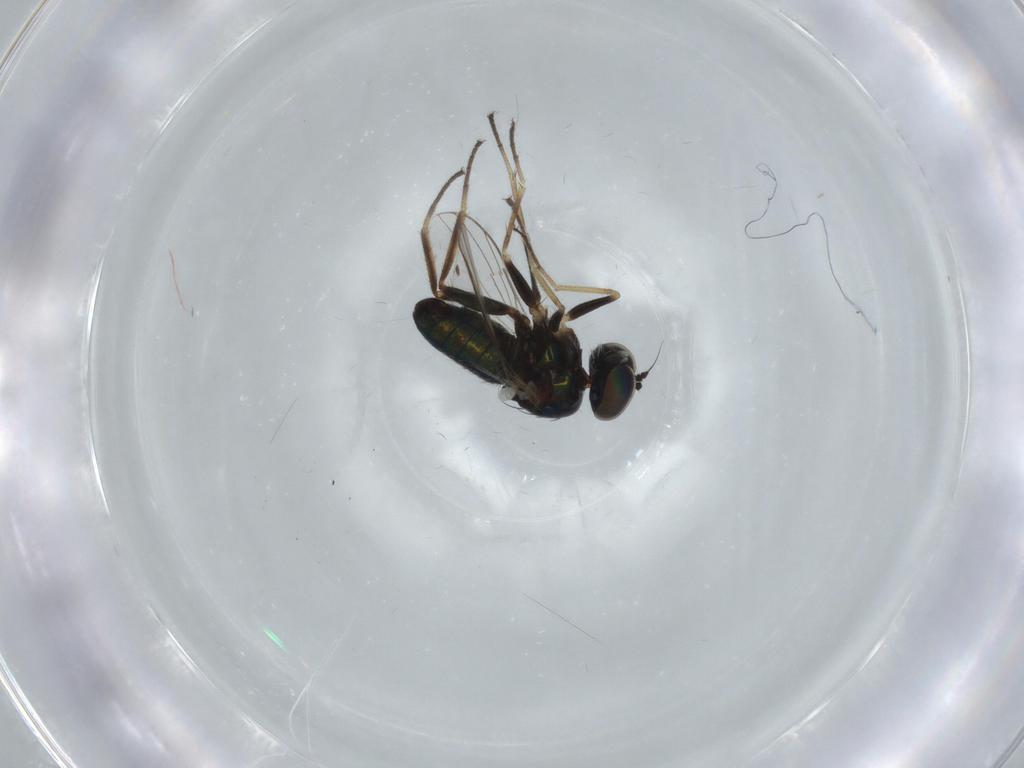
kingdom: Animalia
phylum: Arthropoda
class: Insecta
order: Diptera
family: Dolichopodidae
